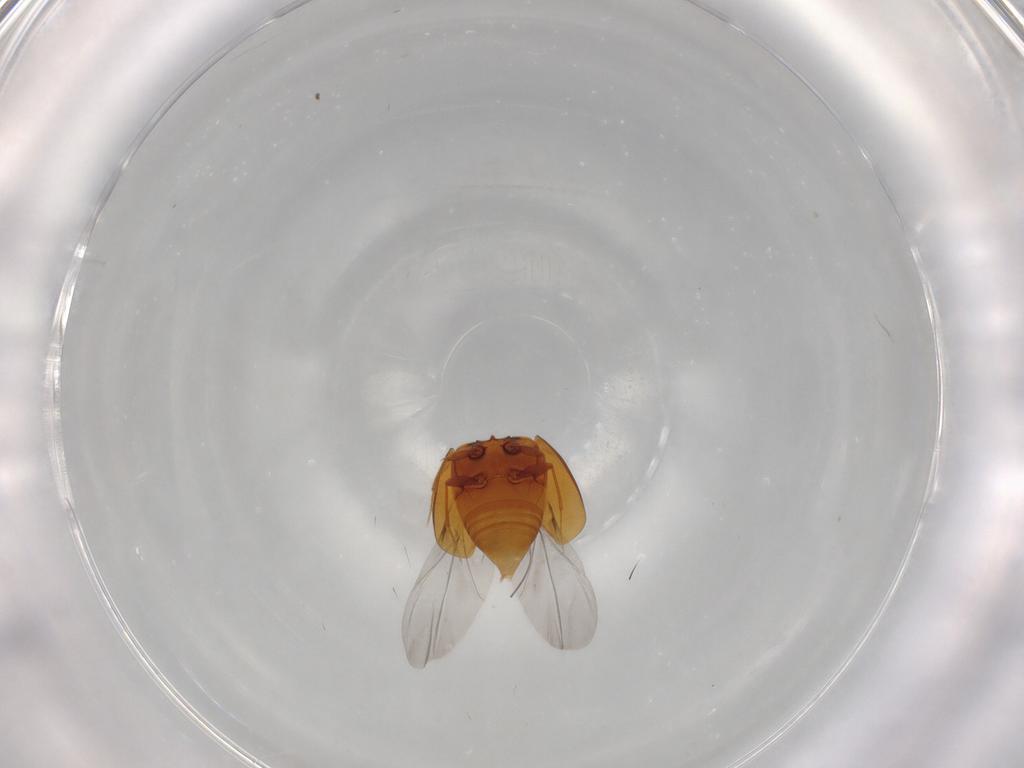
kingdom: Animalia
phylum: Arthropoda
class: Insecta
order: Coleoptera
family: Staphylinidae
